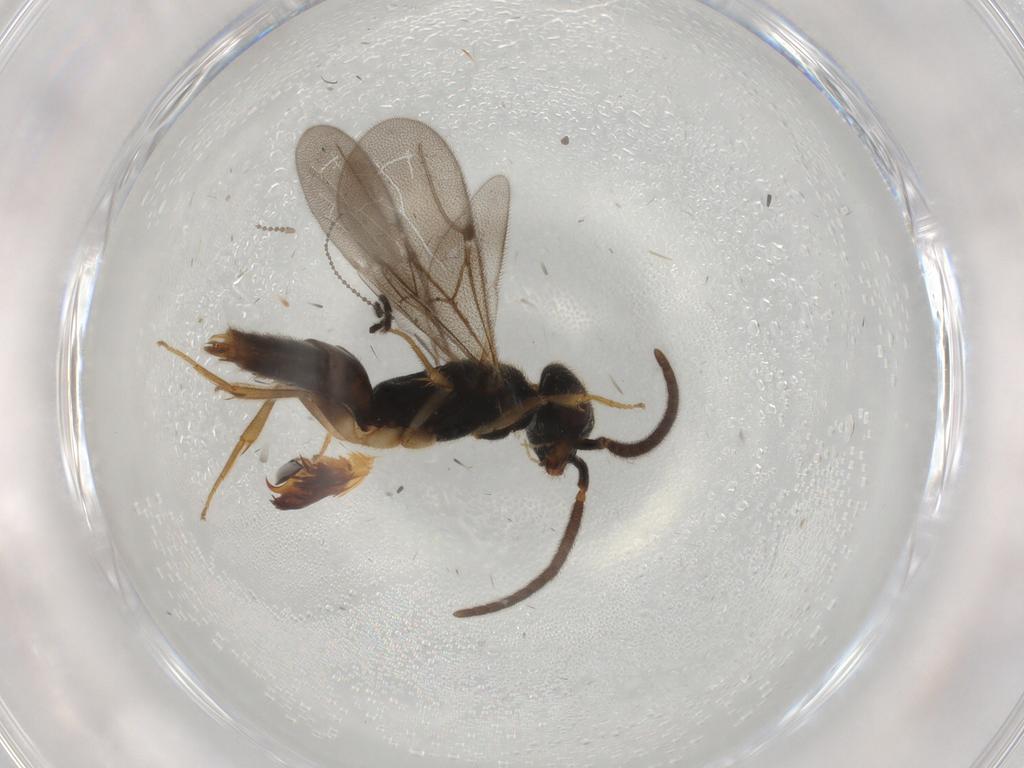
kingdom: Animalia
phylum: Arthropoda
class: Insecta
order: Hymenoptera
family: Bethylidae
